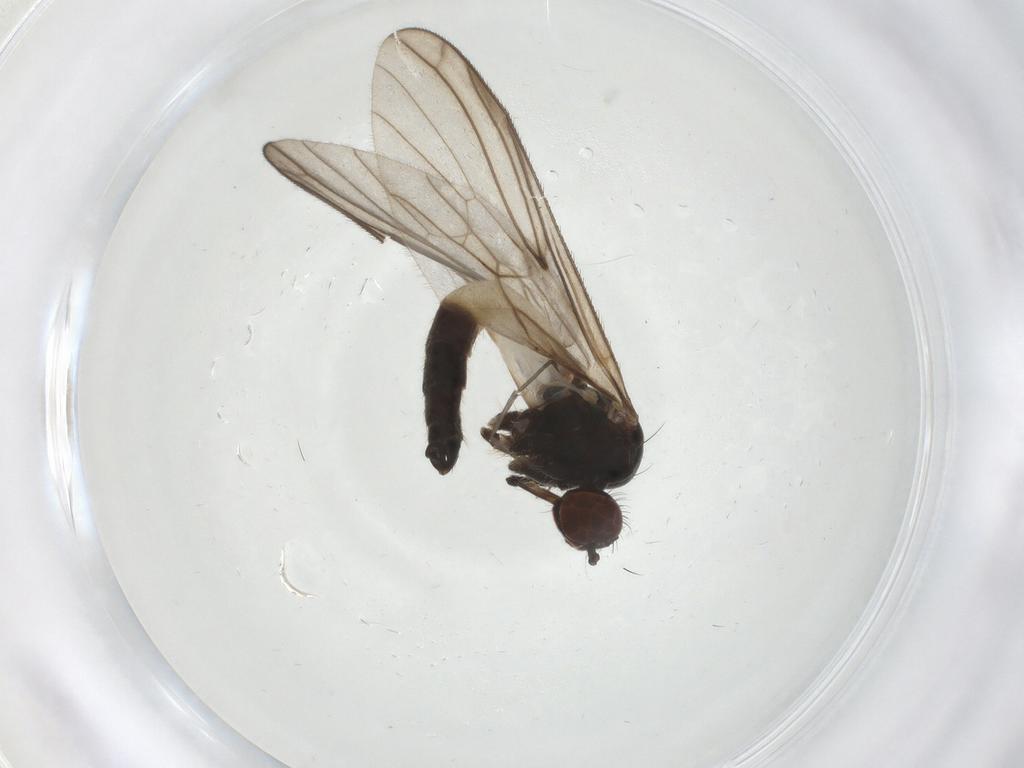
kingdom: Animalia
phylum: Arthropoda
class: Insecta
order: Diptera
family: Empididae
